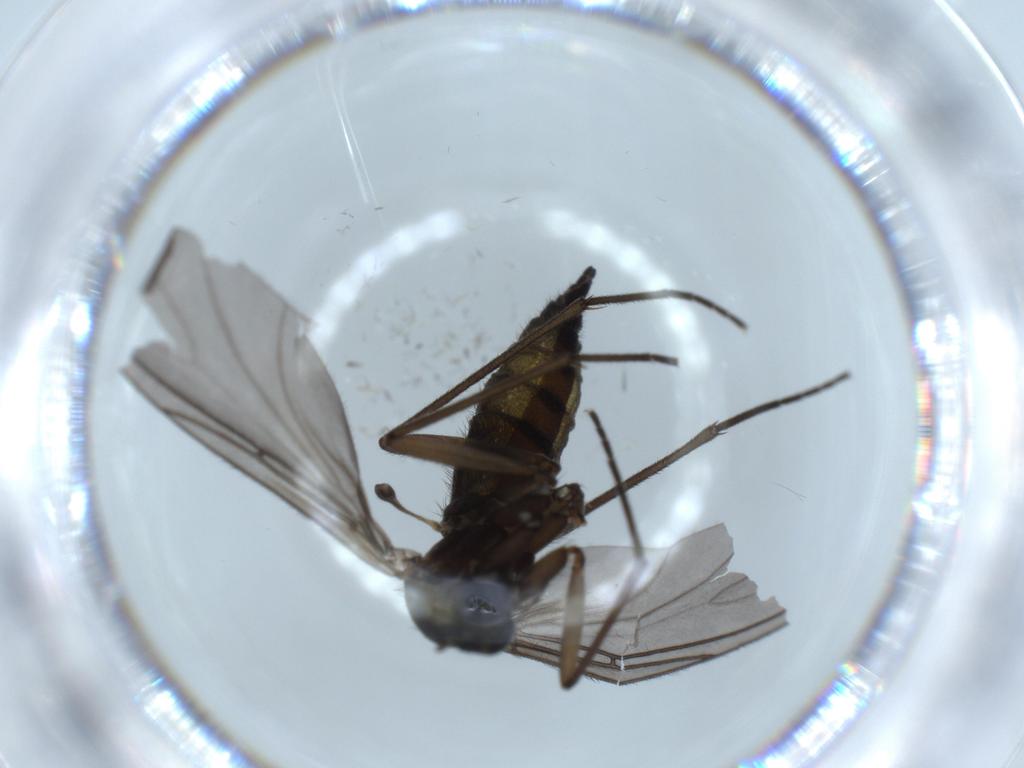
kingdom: Animalia
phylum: Arthropoda
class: Insecta
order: Diptera
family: Sciaridae
